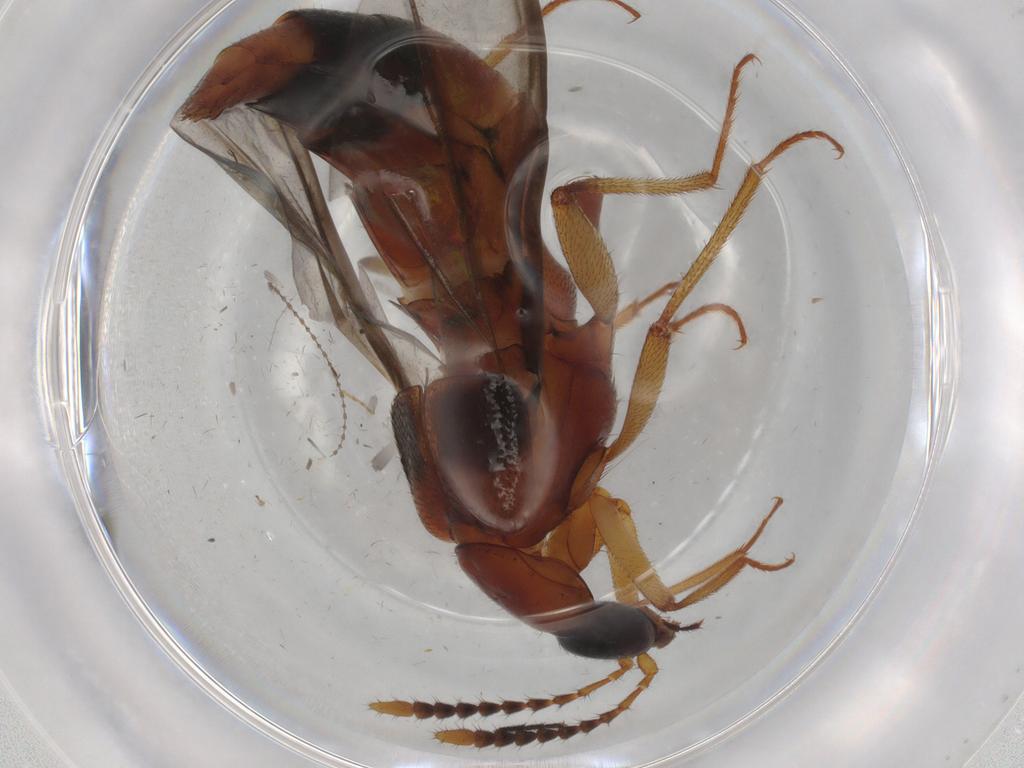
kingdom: Animalia
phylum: Arthropoda
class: Insecta
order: Coleoptera
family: Staphylinidae
